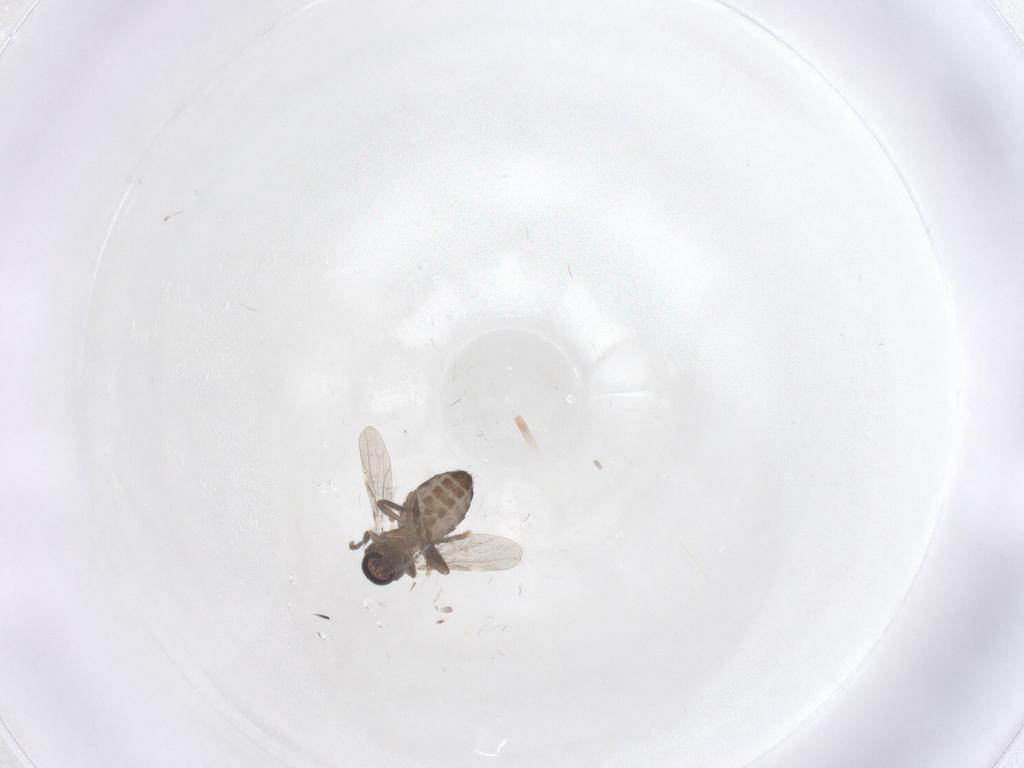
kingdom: Animalia
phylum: Arthropoda
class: Insecta
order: Diptera
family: Ceratopogonidae
